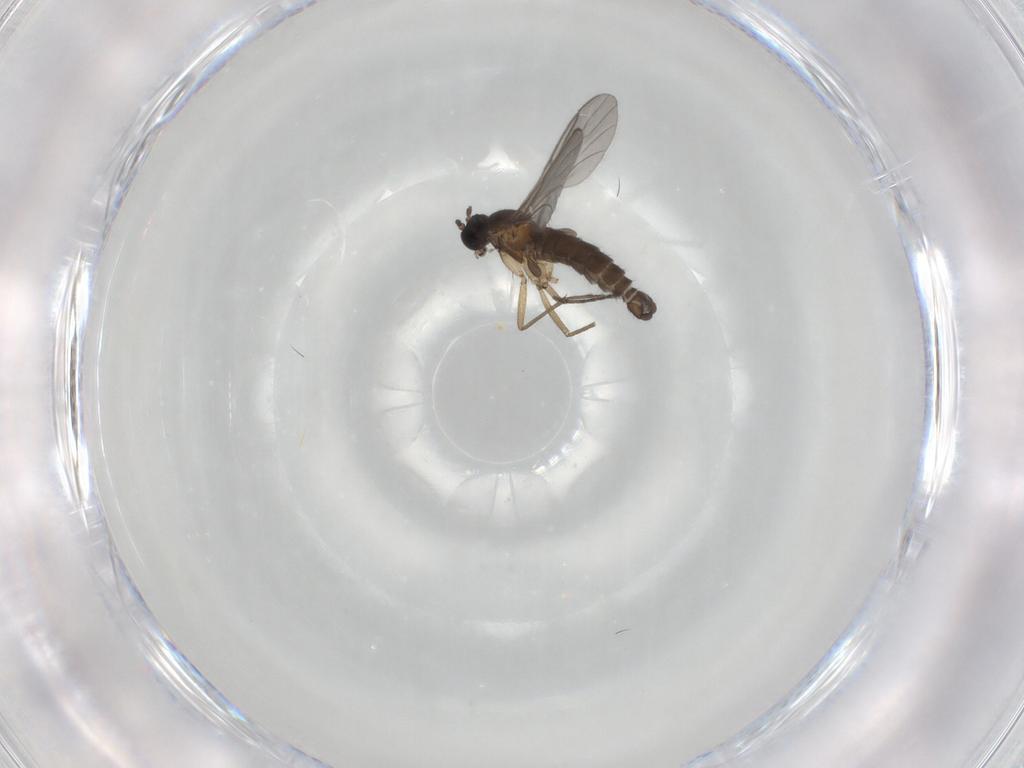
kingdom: Animalia
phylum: Arthropoda
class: Insecta
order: Diptera
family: Sciaridae
